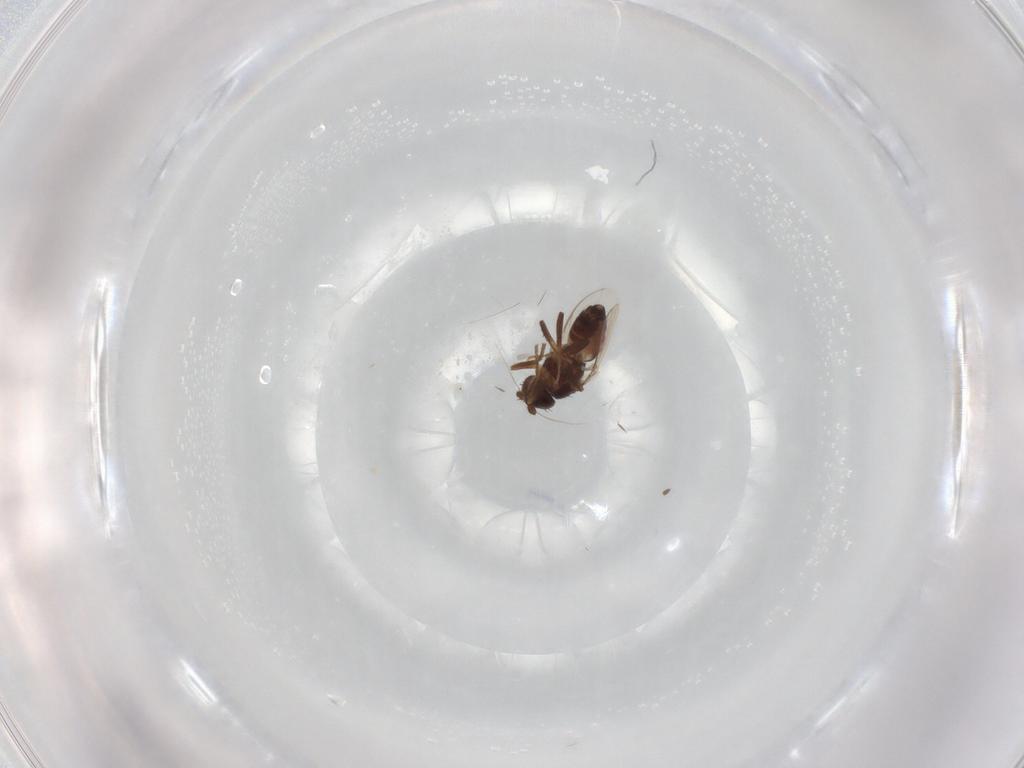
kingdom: Animalia
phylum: Arthropoda
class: Insecta
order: Diptera
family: Sphaeroceridae
